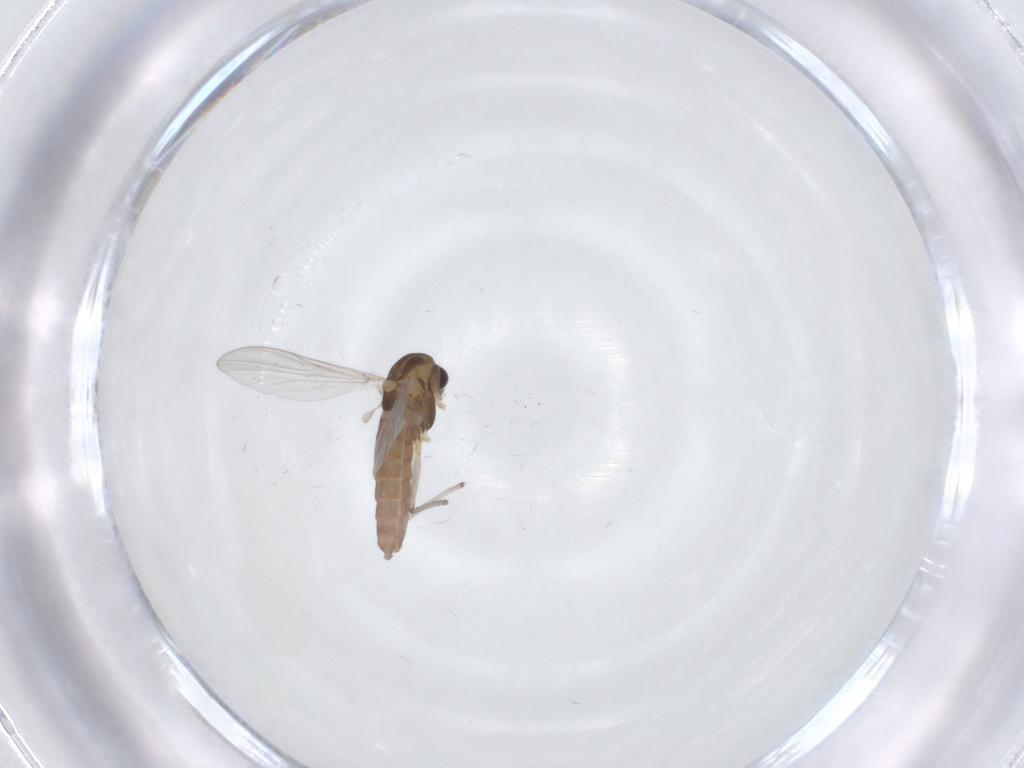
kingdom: Animalia
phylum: Arthropoda
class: Insecta
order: Diptera
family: Chironomidae
